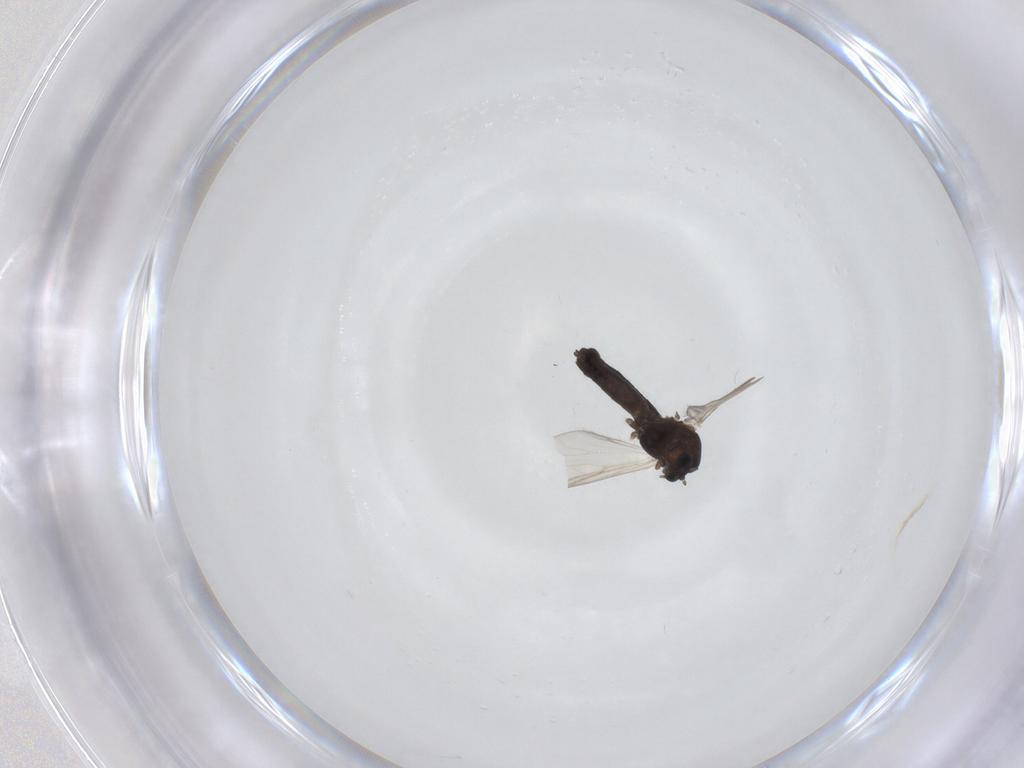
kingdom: Animalia
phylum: Arthropoda
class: Insecta
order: Diptera
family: Chironomidae
